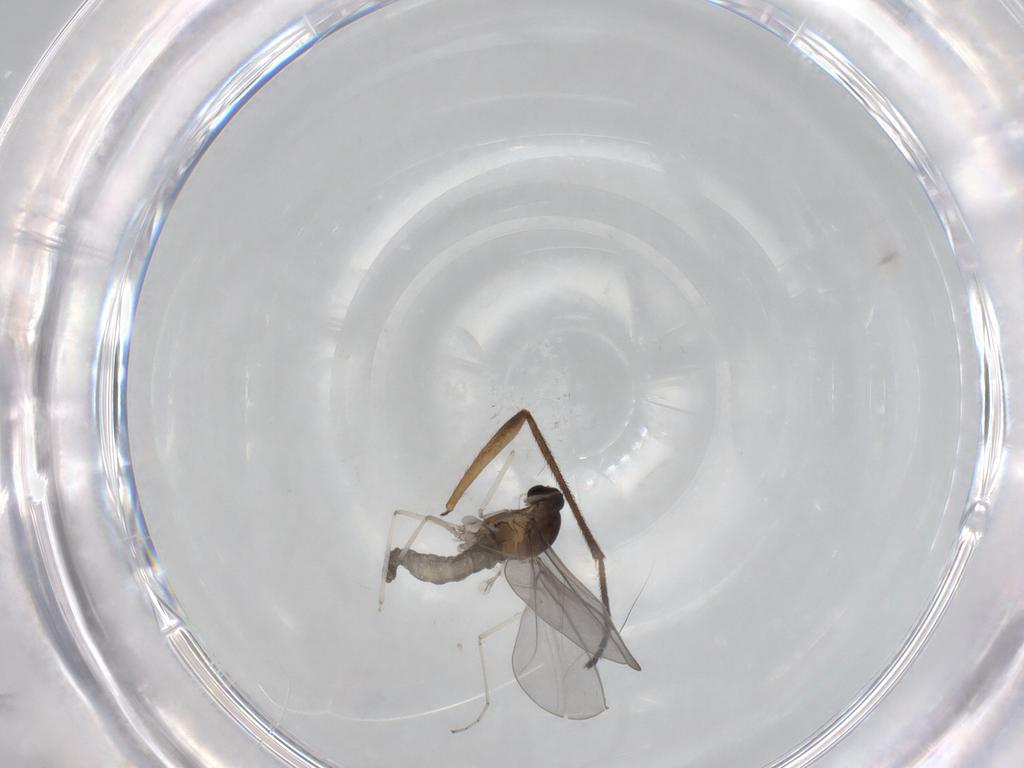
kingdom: Animalia
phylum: Arthropoda
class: Insecta
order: Diptera
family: Cecidomyiidae
